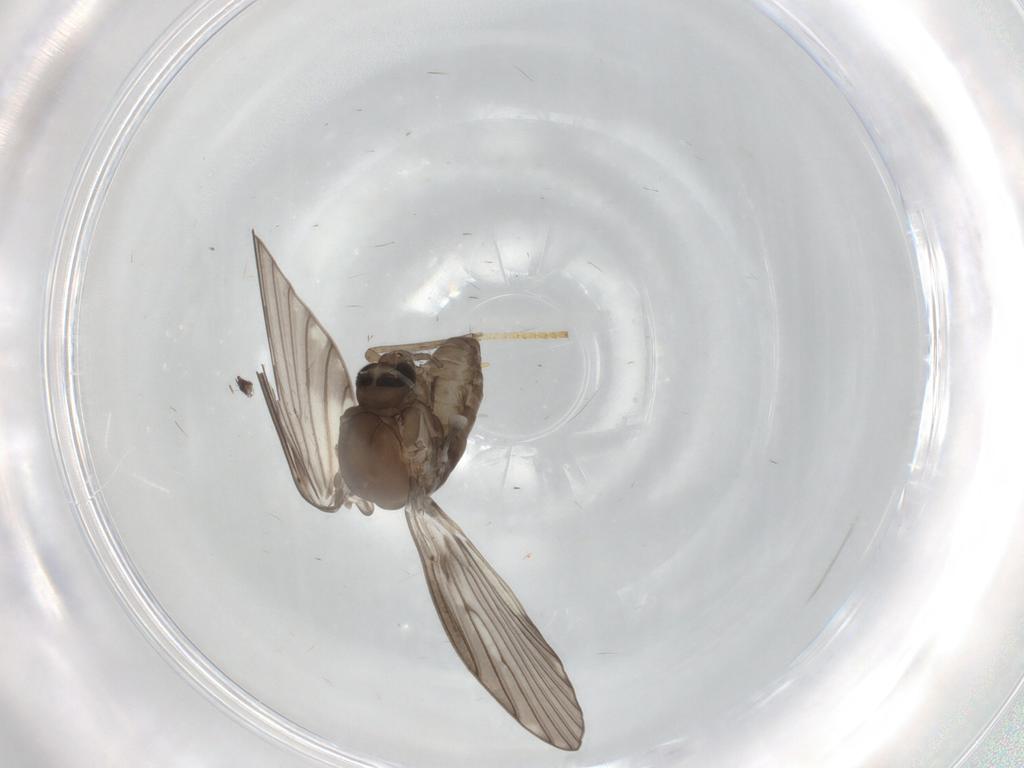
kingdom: Animalia
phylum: Arthropoda
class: Insecta
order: Diptera
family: Psychodidae
